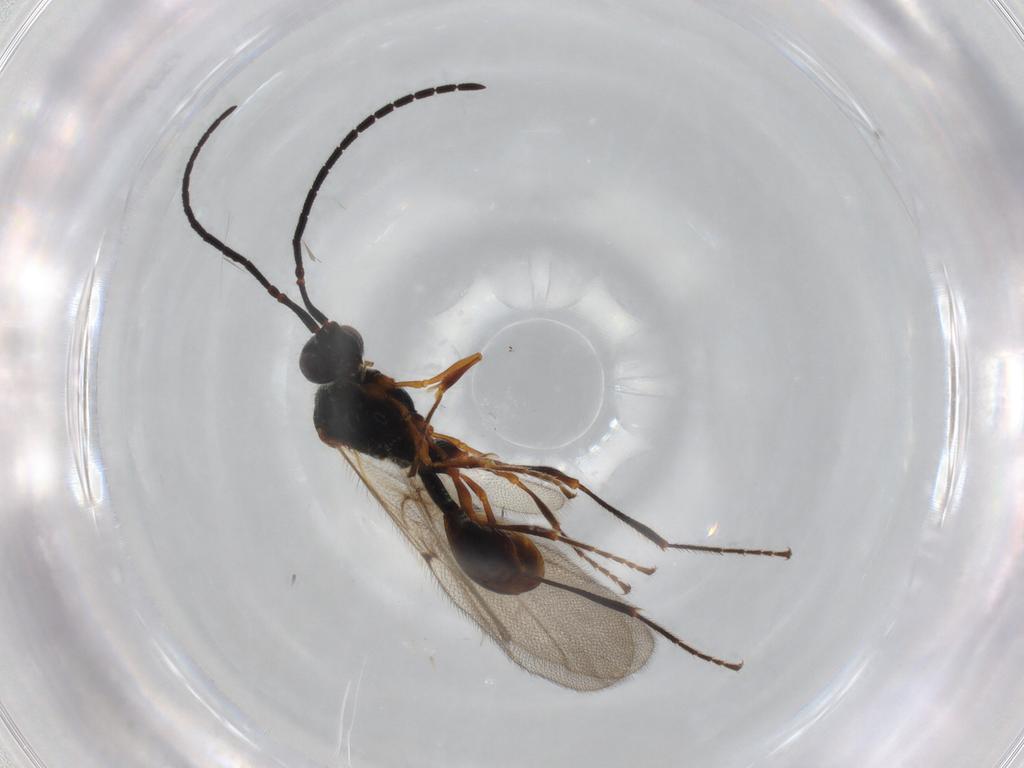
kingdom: Animalia
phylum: Arthropoda
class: Insecta
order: Hymenoptera
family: Diapriidae
